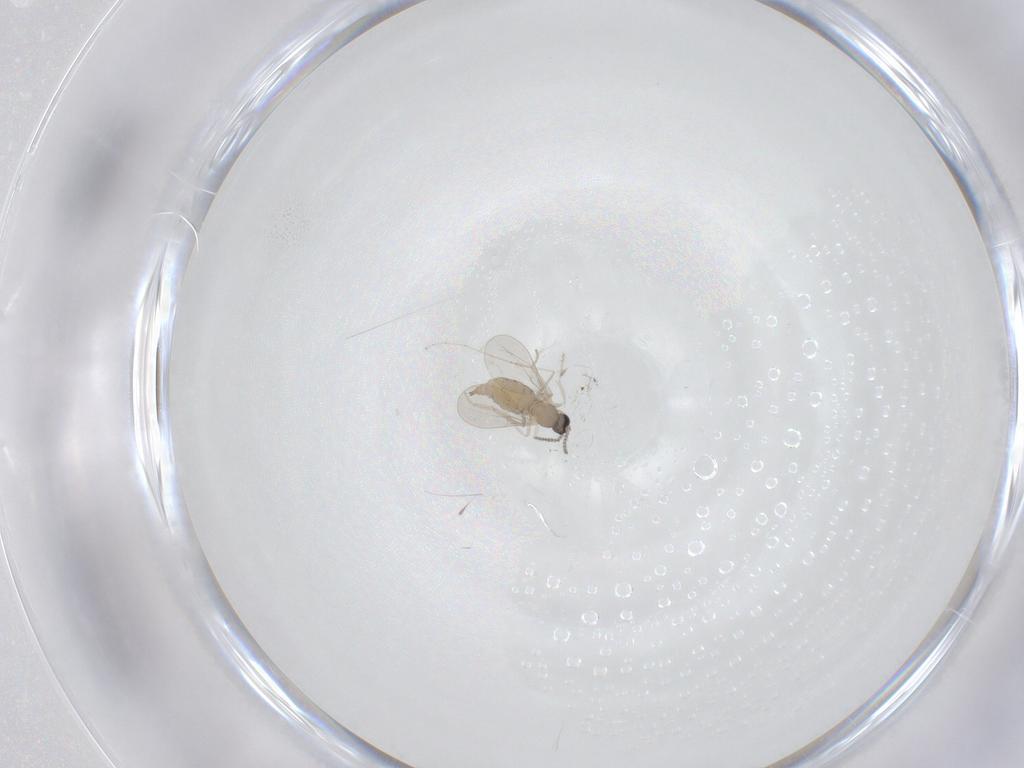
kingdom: Animalia
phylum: Arthropoda
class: Insecta
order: Diptera
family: Cecidomyiidae
